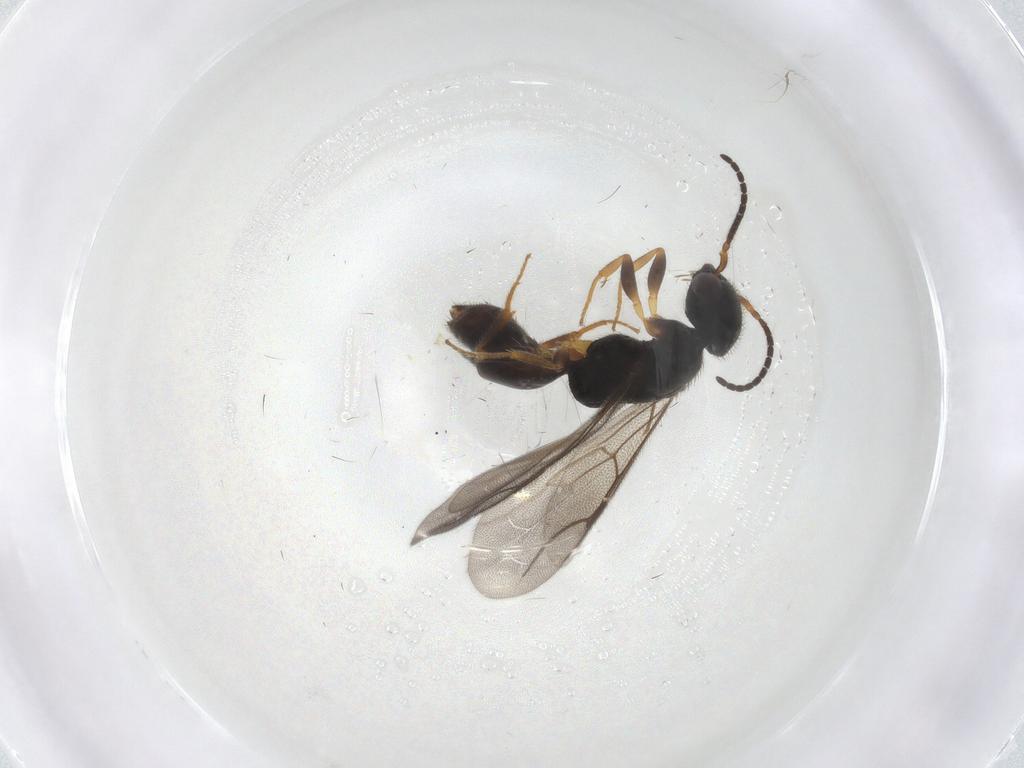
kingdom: Animalia
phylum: Arthropoda
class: Insecta
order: Hymenoptera
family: Bethylidae
